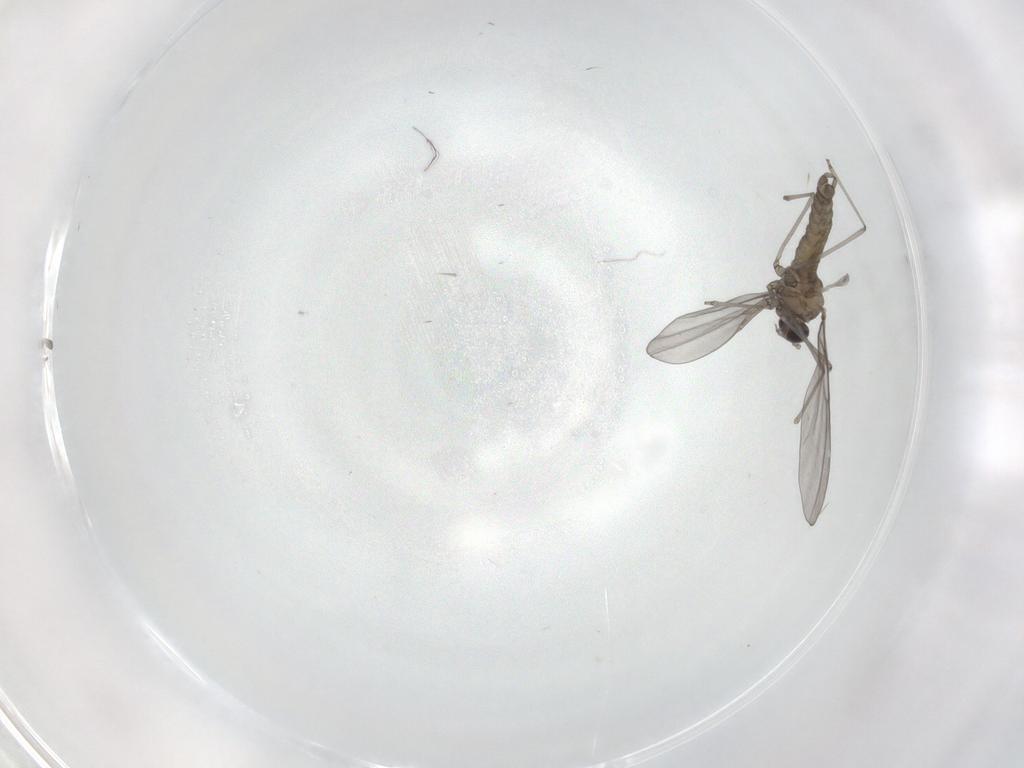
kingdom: Animalia
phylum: Arthropoda
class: Insecta
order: Diptera
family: Cecidomyiidae
